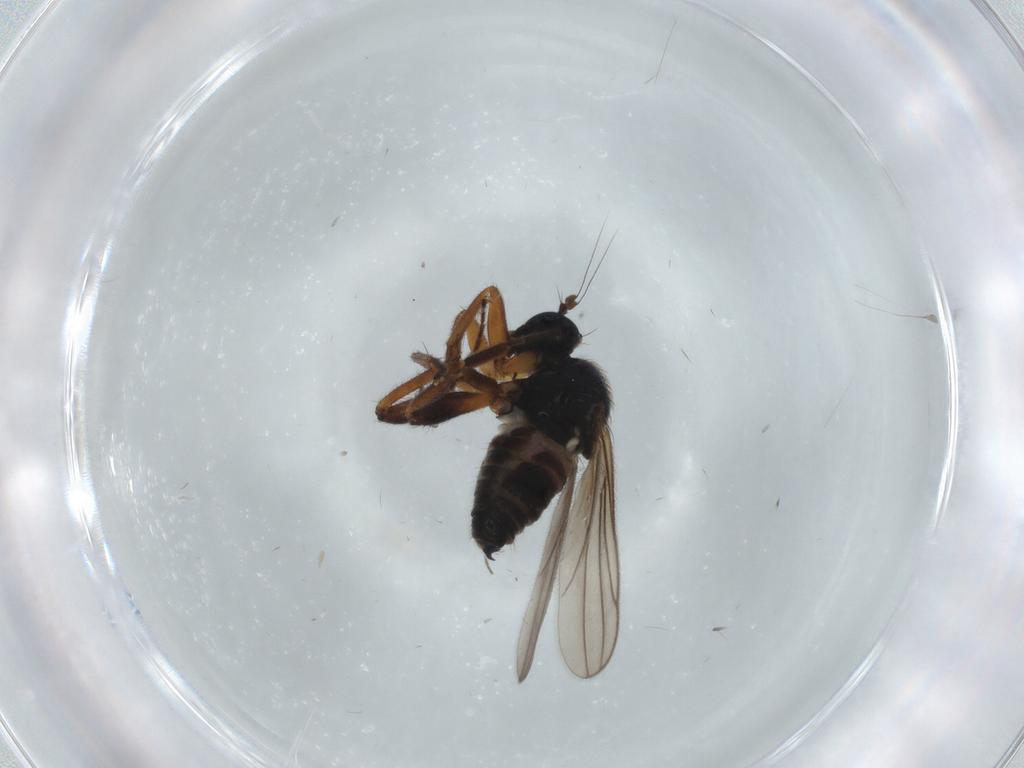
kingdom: Animalia
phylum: Arthropoda
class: Insecta
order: Diptera
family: Hybotidae
